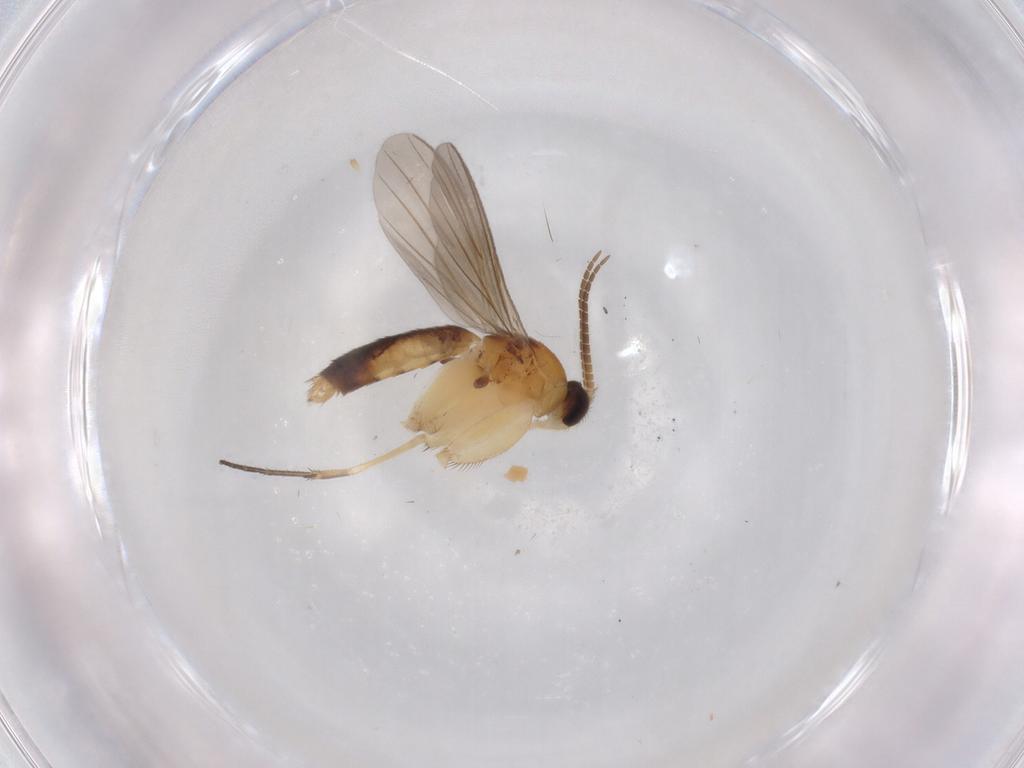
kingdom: Animalia
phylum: Arthropoda
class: Insecta
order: Diptera
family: Mycetophilidae
